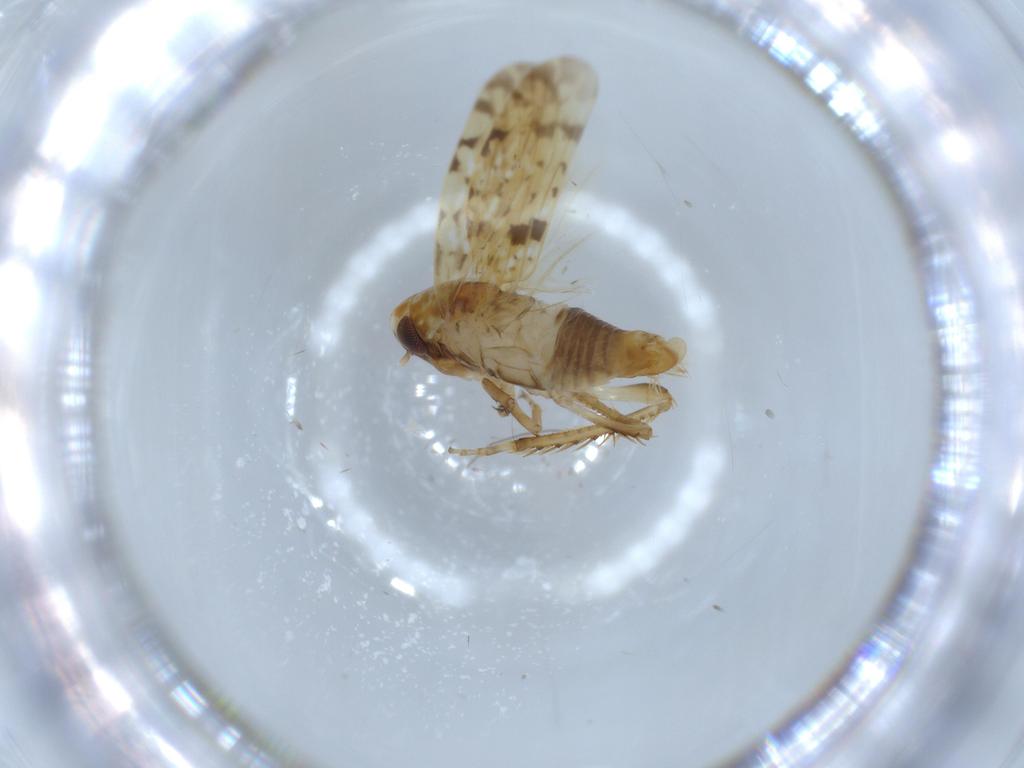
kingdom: Animalia
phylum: Arthropoda
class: Insecta
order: Hemiptera
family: Cicadellidae
